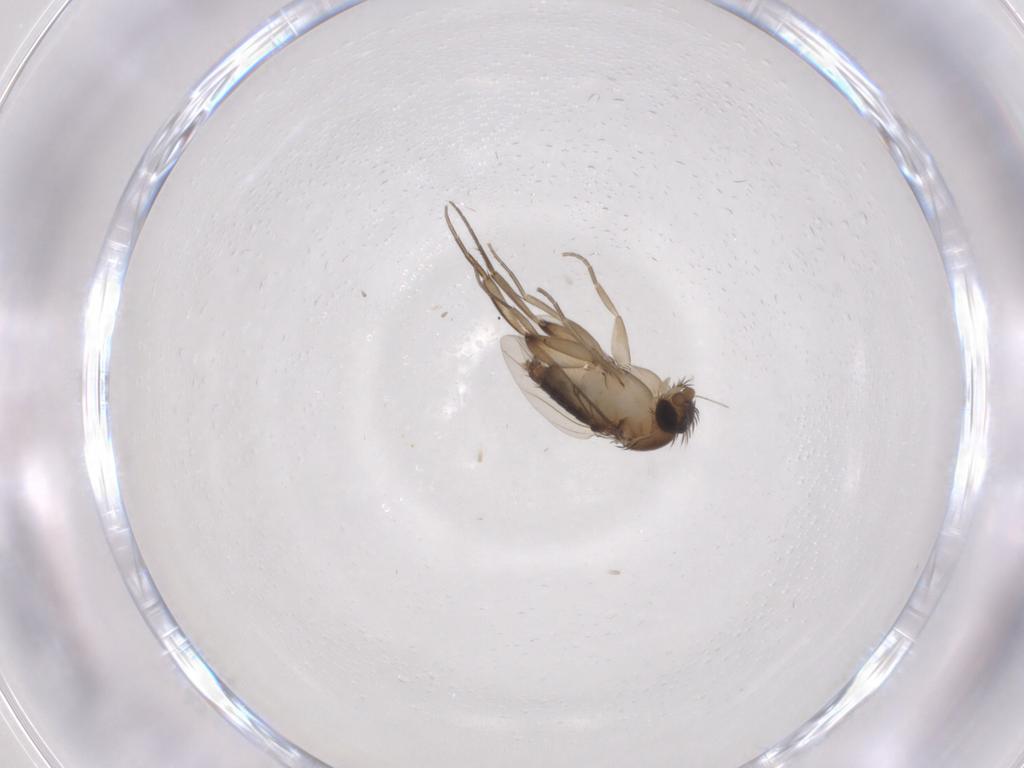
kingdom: Animalia
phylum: Arthropoda
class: Insecta
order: Diptera
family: Phoridae
